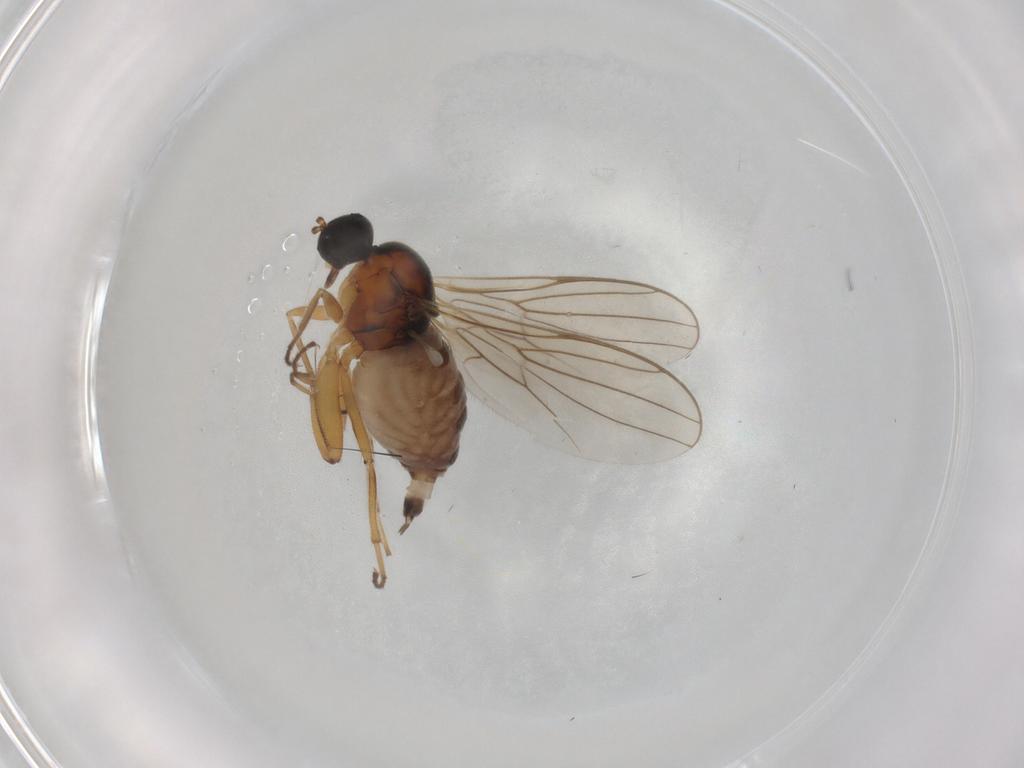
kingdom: Animalia
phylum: Arthropoda
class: Insecta
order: Diptera
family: Hybotidae
